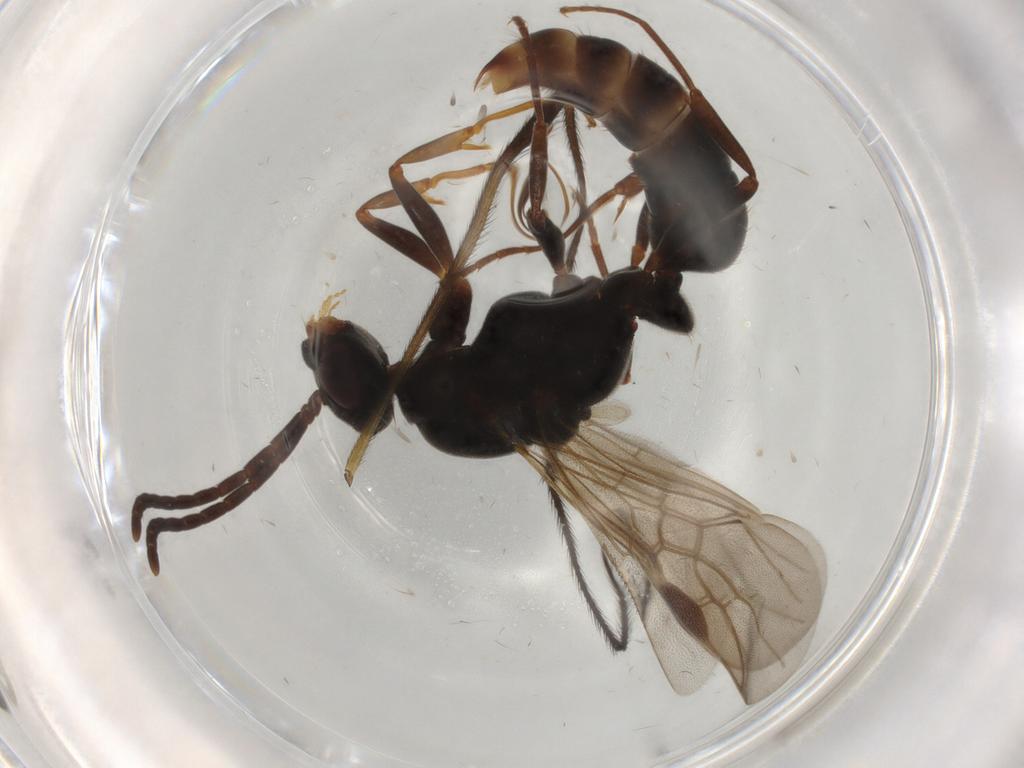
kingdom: Animalia
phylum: Arthropoda
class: Insecta
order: Hymenoptera
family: Formicidae
